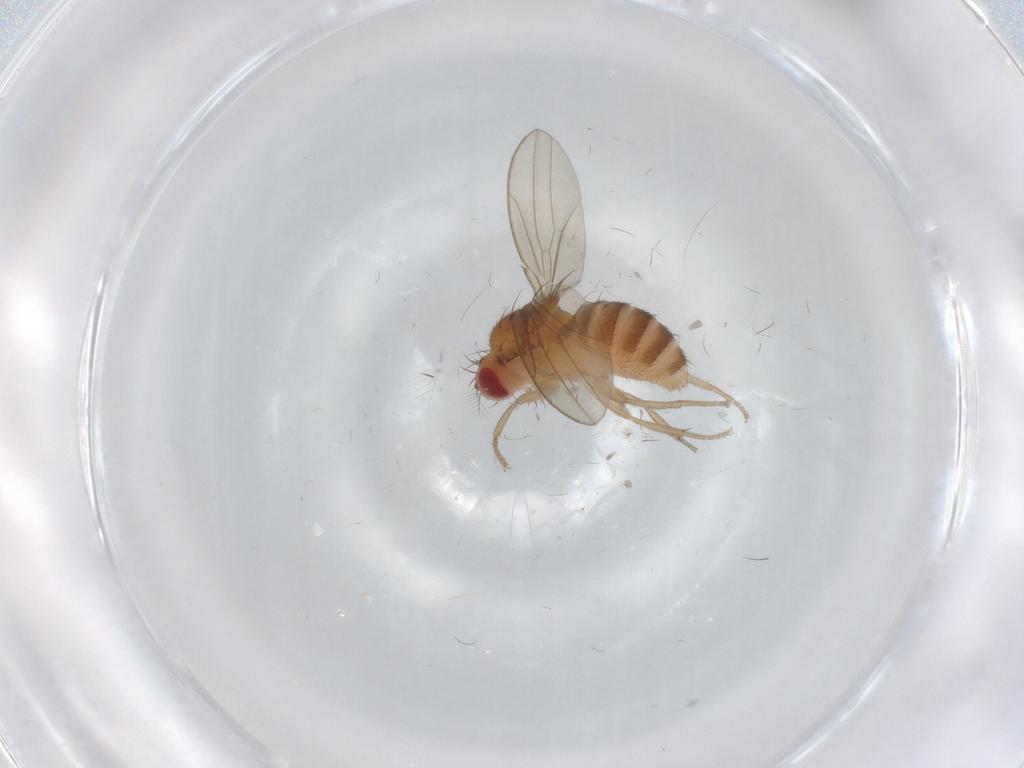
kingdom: Animalia
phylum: Arthropoda
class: Insecta
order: Diptera
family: Drosophilidae
